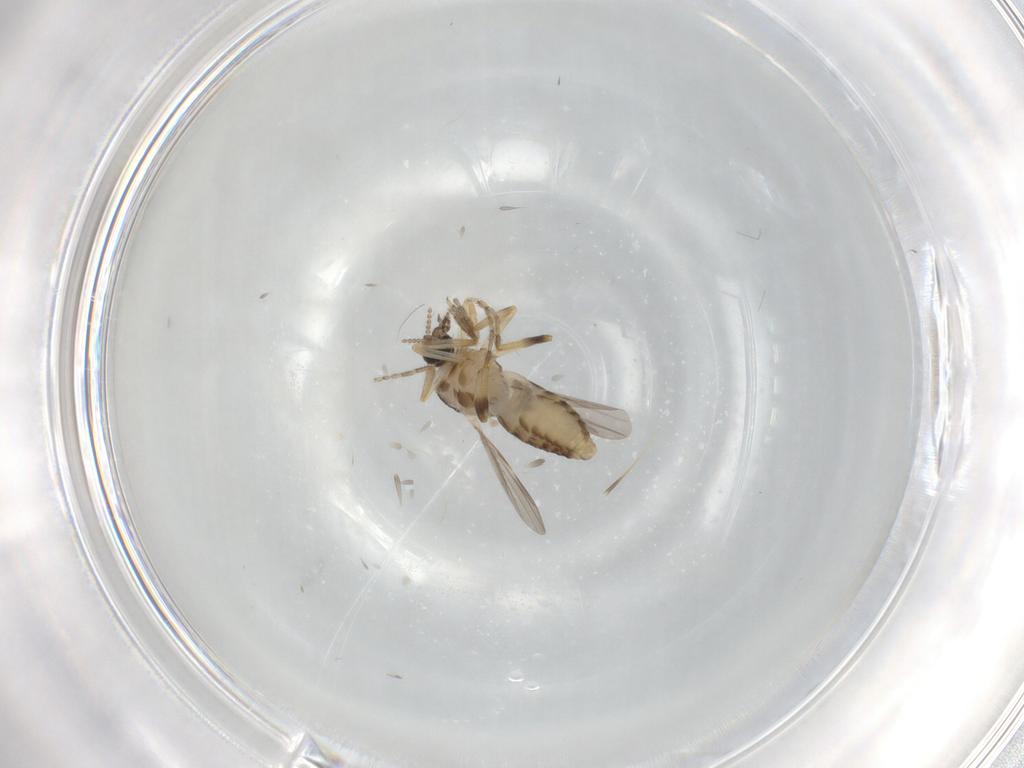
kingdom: Animalia
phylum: Arthropoda
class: Insecta
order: Diptera
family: Ceratopogonidae
